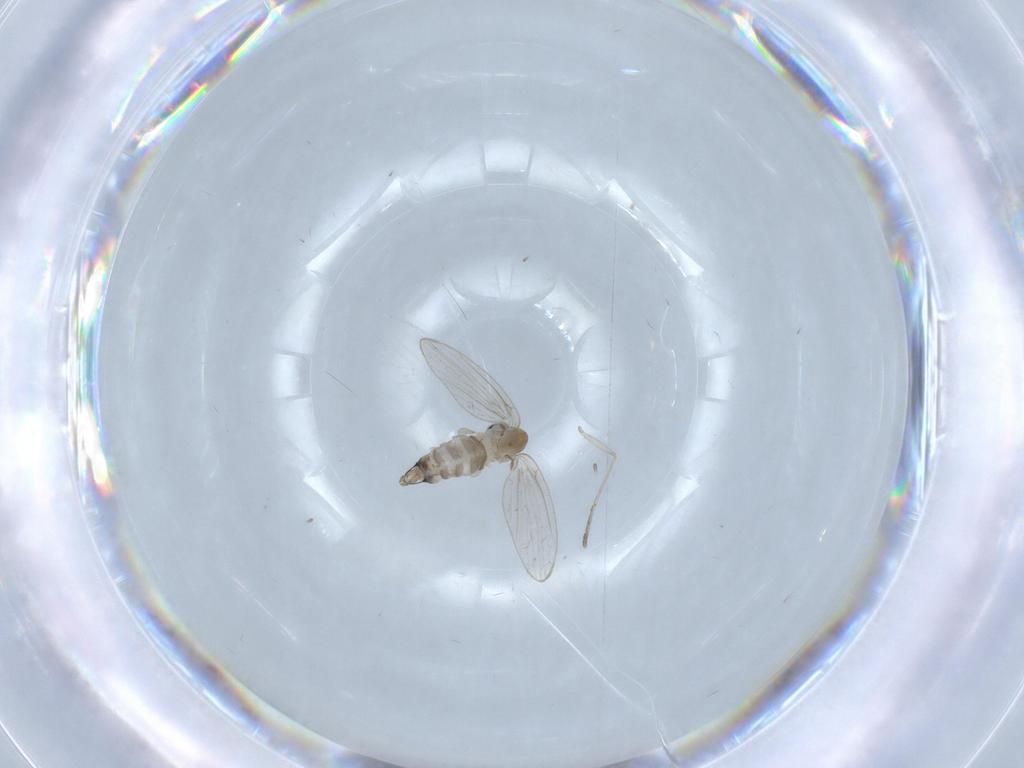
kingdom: Animalia
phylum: Arthropoda
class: Insecta
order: Diptera
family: Psychodidae
